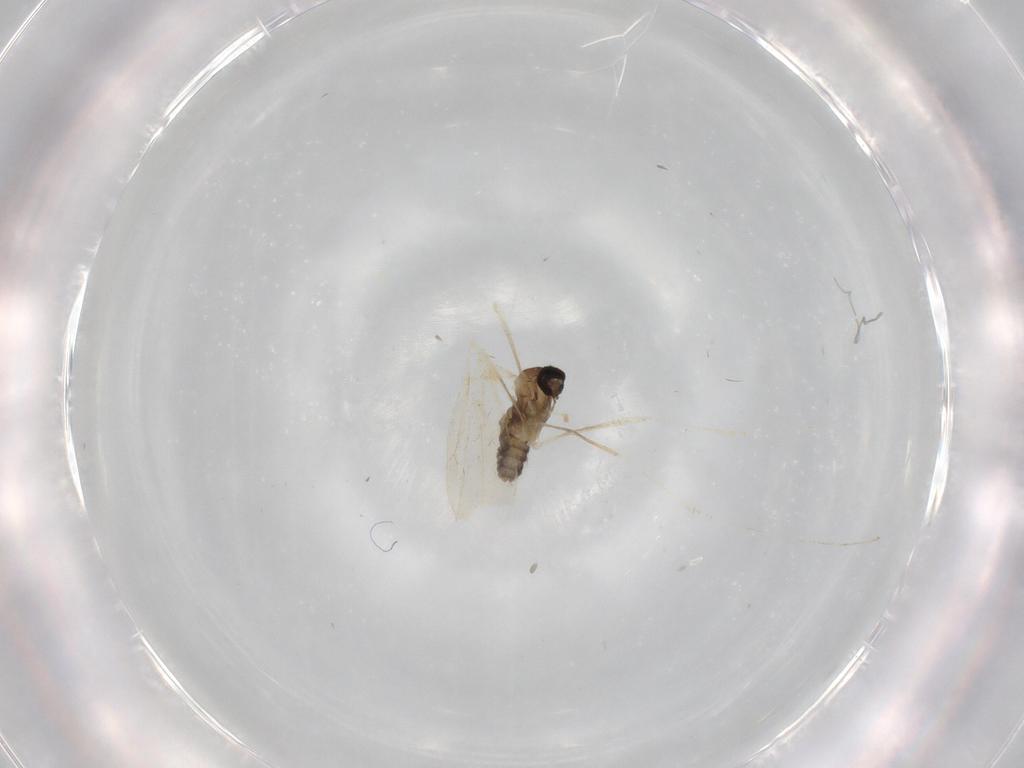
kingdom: Animalia
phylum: Arthropoda
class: Insecta
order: Diptera
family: Cecidomyiidae
